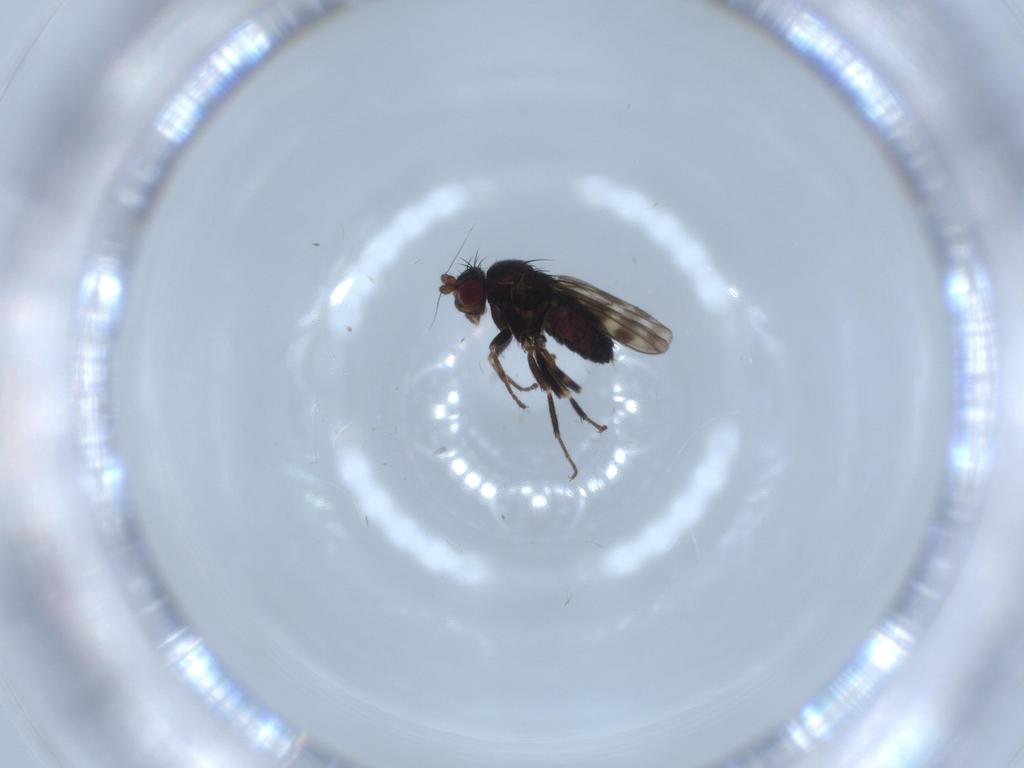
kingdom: Animalia
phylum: Arthropoda
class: Insecta
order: Diptera
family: Sphaeroceridae
